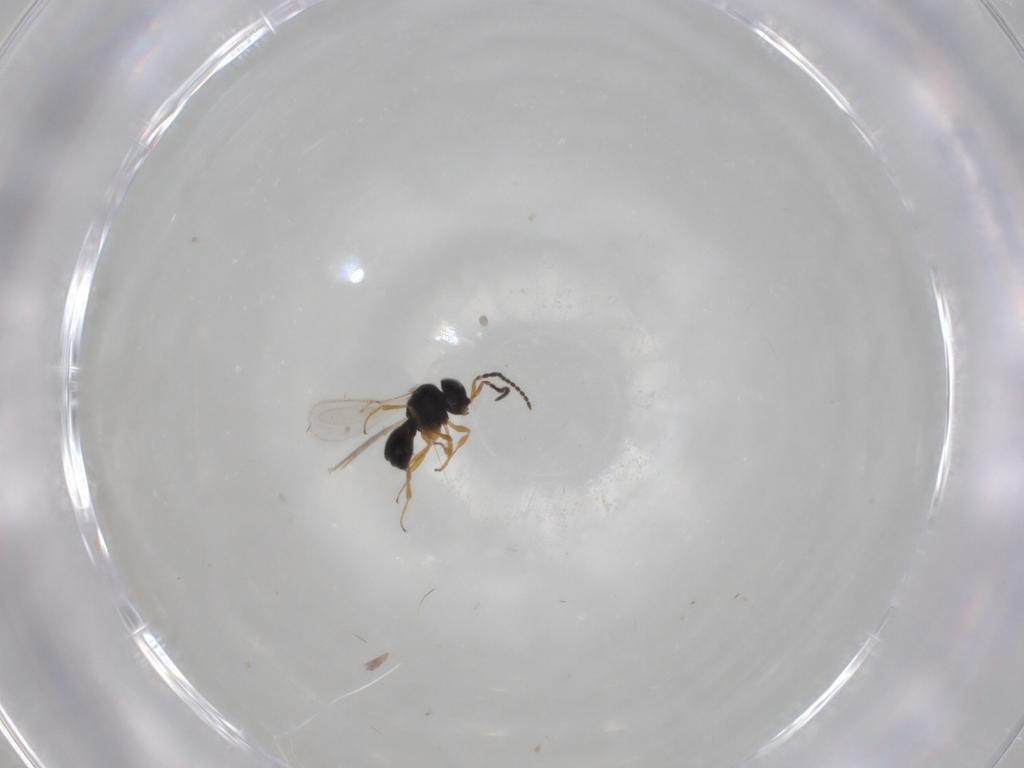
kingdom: Animalia
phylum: Arthropoda
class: Insecta
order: Hymenoptera
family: Scelionidae
